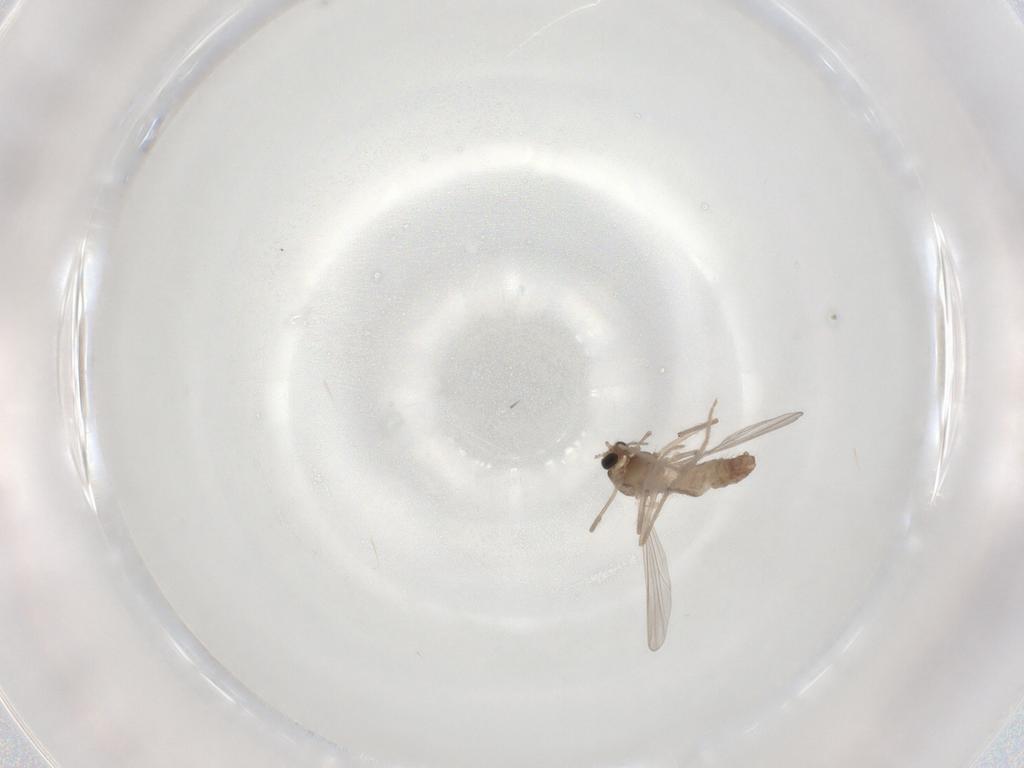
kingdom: Animalia
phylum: Arthropoda
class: Insecta
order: Diptera
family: Chironomidae
